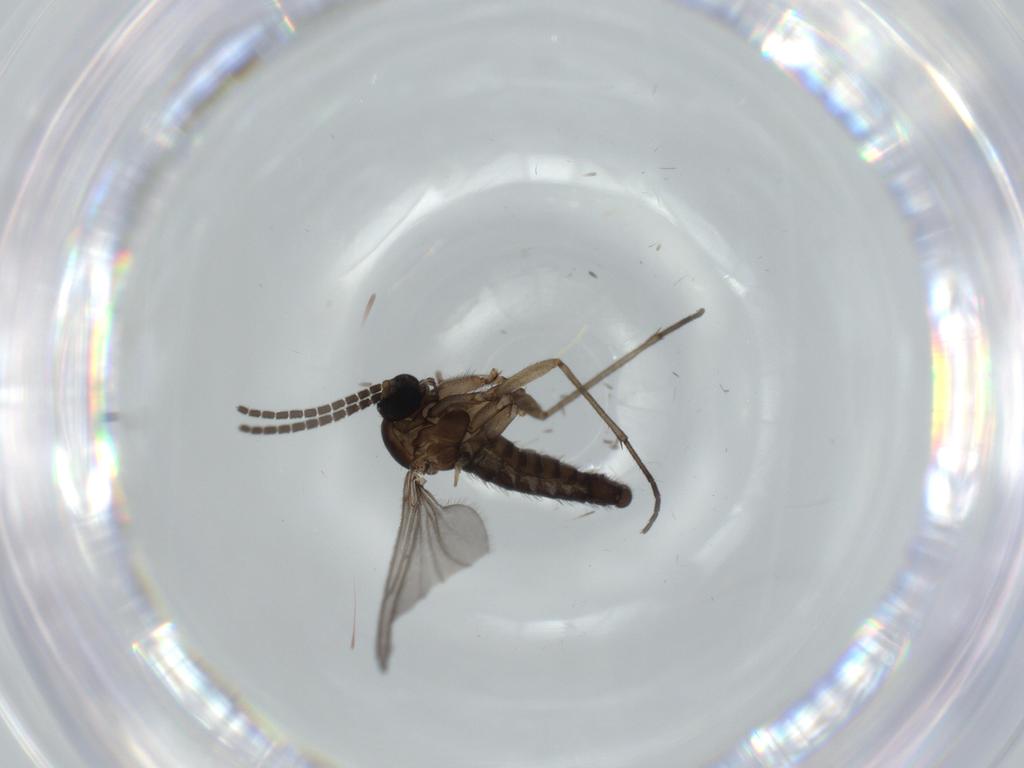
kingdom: Animalia
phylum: Arthropoda
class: Insecta
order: Diptera
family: Sciaridae
